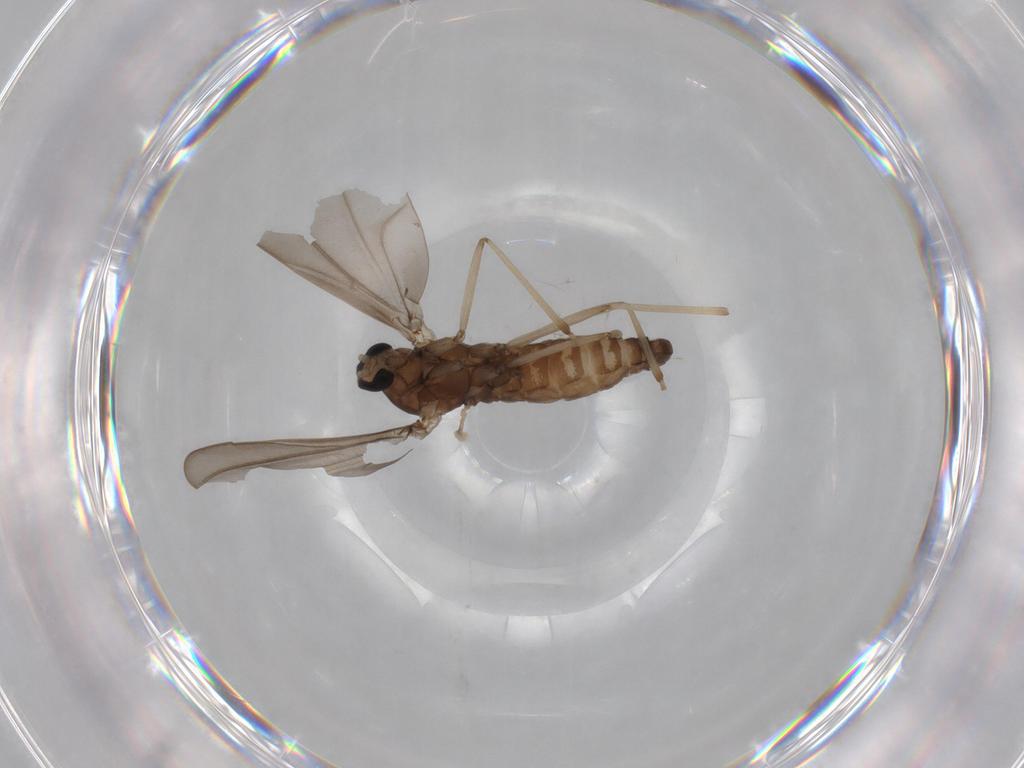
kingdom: Animalia
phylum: Arthropoda
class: Insecta
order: Diptera
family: Cecidomyiidae
